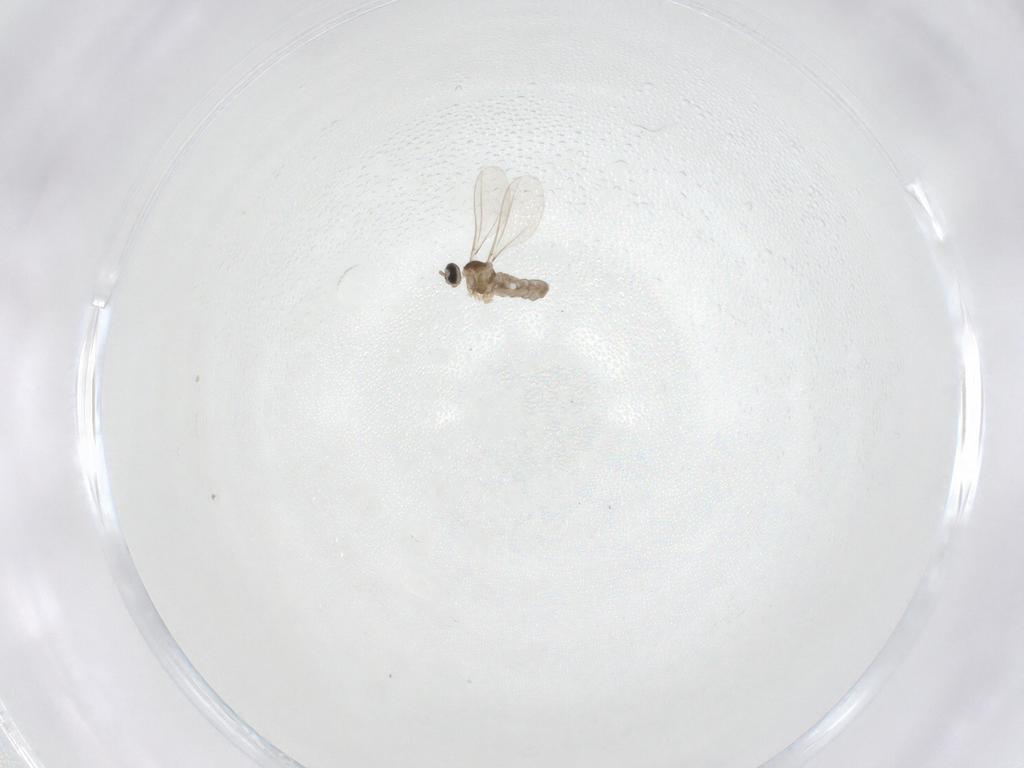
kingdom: Animalia
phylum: Arthropoda
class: Insecta
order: Diptera
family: Cecidomyiidae
